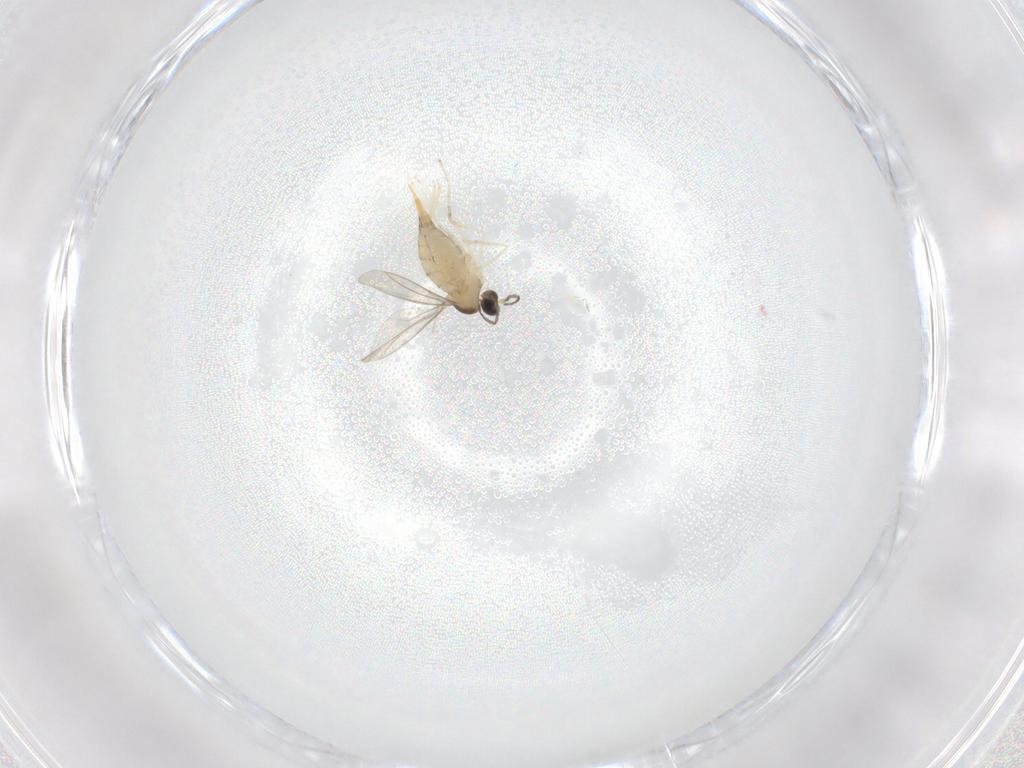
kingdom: Animalia
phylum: Arthropoda
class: Insecta
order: Diptera
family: Cecidomyiidae
